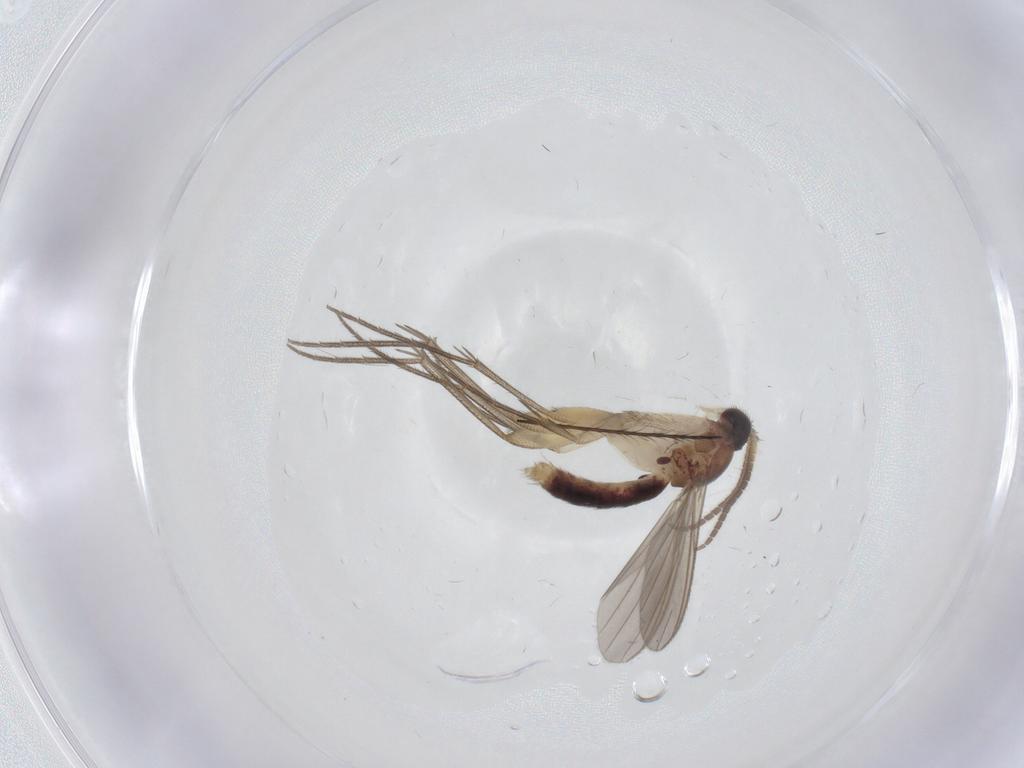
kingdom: Animalia
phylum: Arthropoda
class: Insecta
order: Diptera
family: Mycetophilidae
